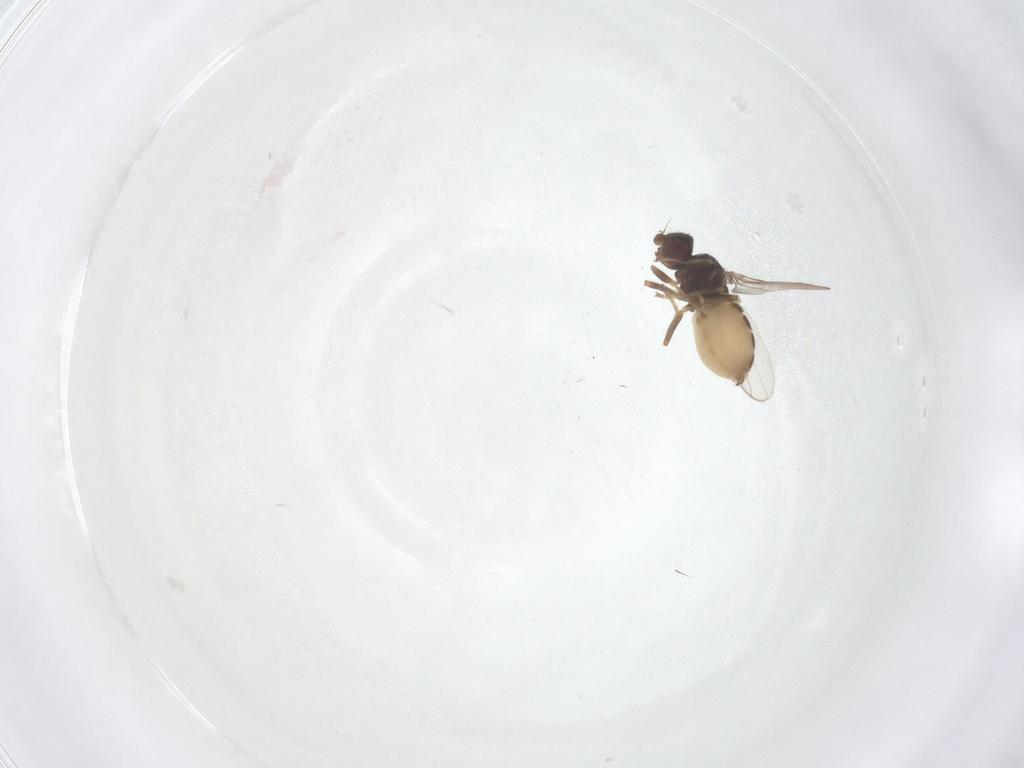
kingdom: Animalia
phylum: Arthropoda
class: Insecta
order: Diptera
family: Chloropidae
